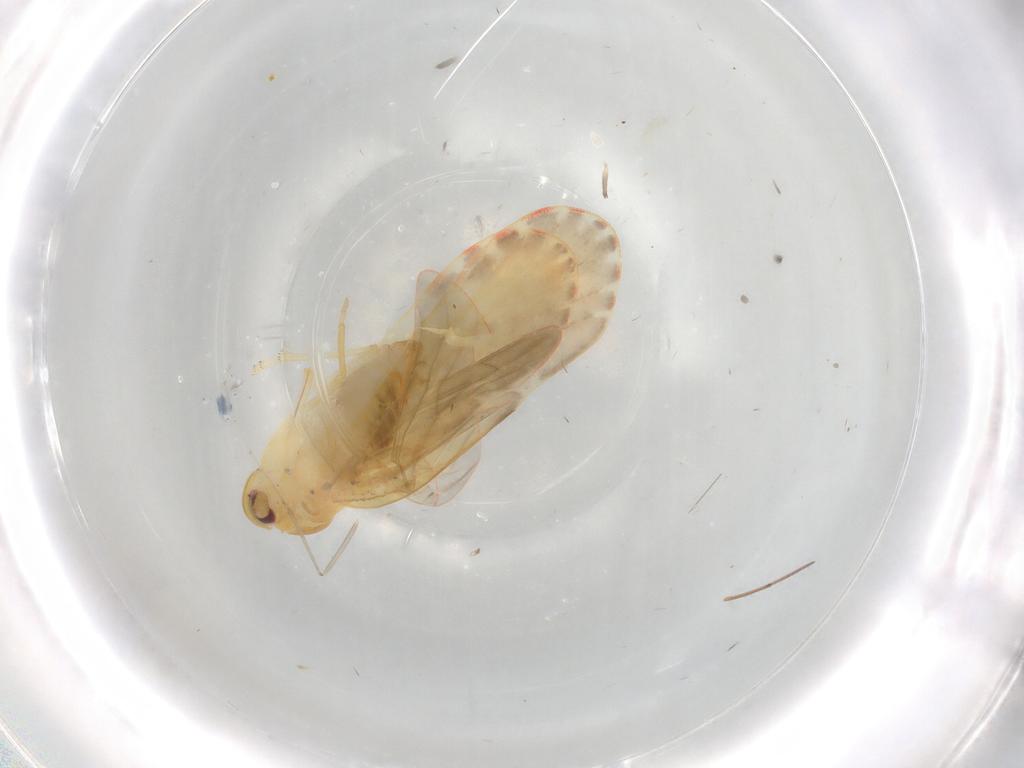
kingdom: Animalia
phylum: Arthropoda
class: Insecta
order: Hemiptera
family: Derbidae
